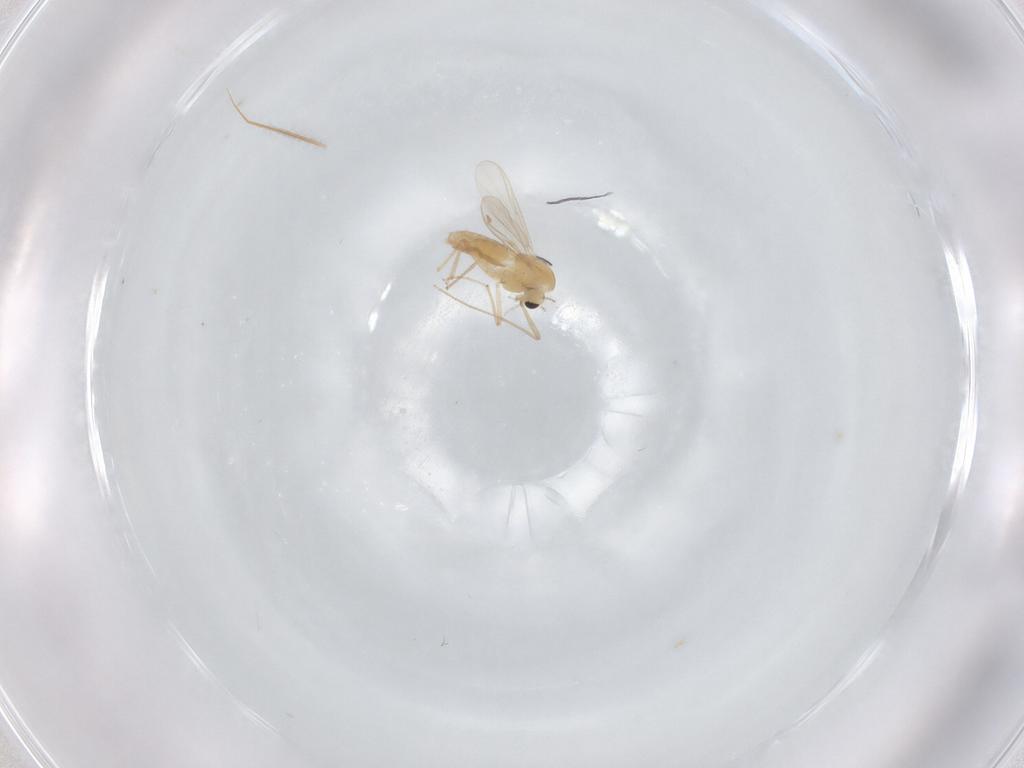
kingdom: Animalia
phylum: Arthropoda
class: Insecta
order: Diptera
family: Chironomidae
